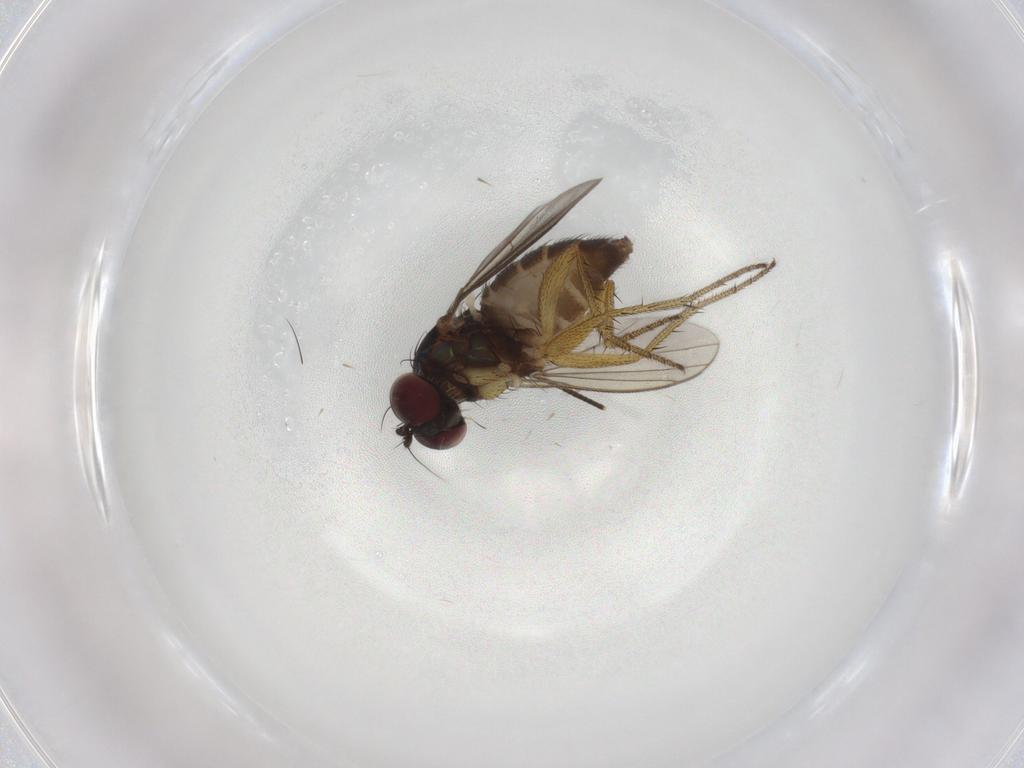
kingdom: Animalia
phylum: Arthropoda
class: Insecta
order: Diptera
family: Dolichopodidae
